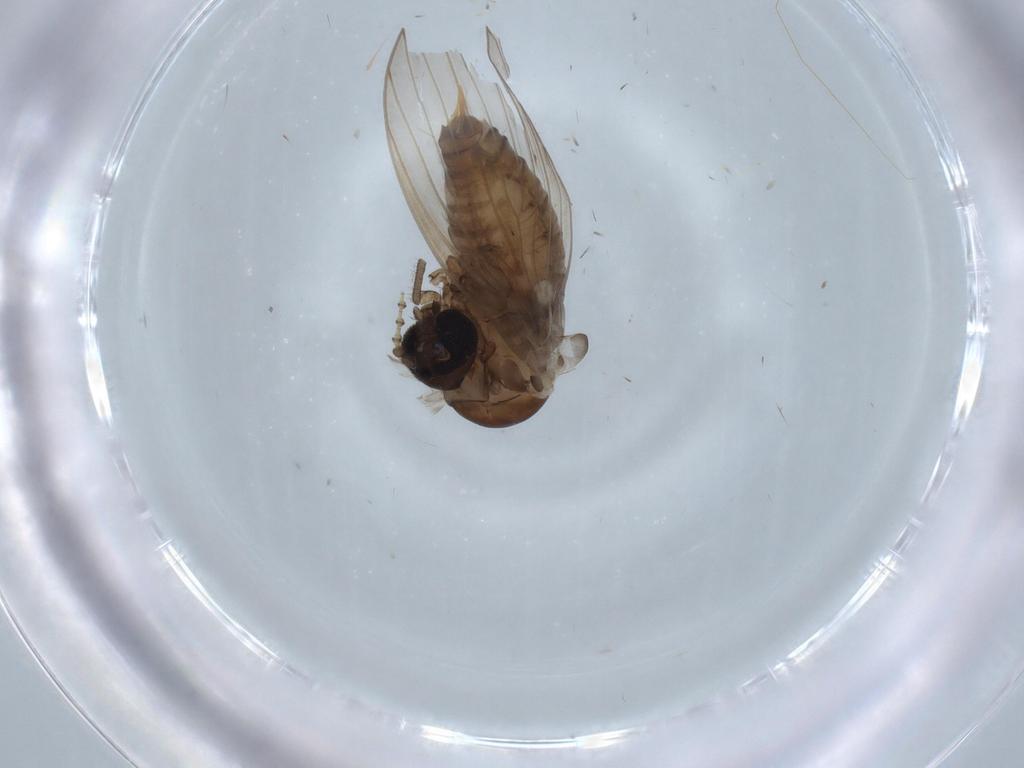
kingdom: Animalia
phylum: Arthropoda
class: Insecta
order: Diptera
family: Cecidomyiidae
